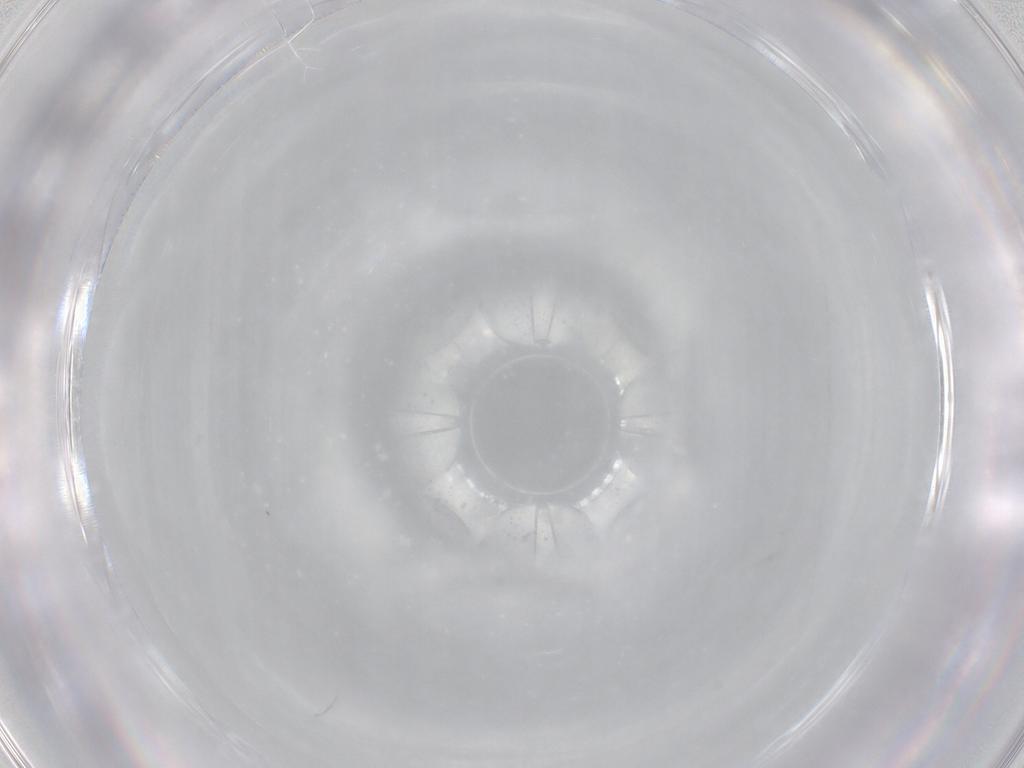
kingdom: Animalia
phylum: Arthropoda
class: Insecta
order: Hymenoptera
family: Mymaridae
